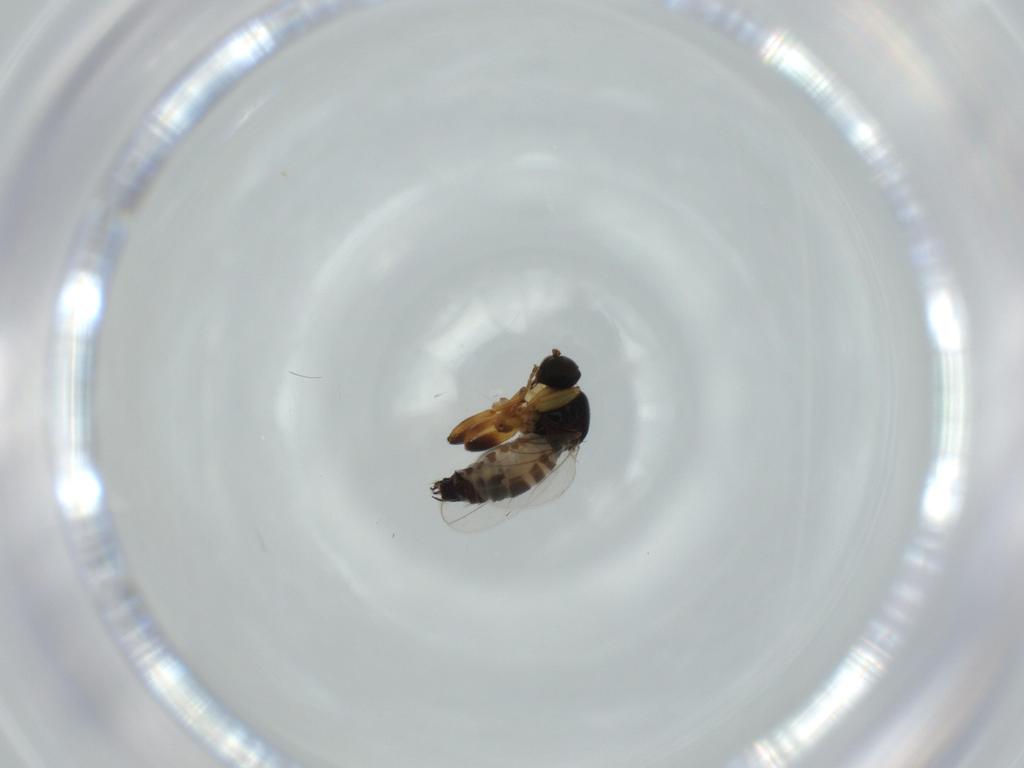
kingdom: Animalia
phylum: Arthropoda
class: Insecta
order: Diptera
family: Hybotidae
